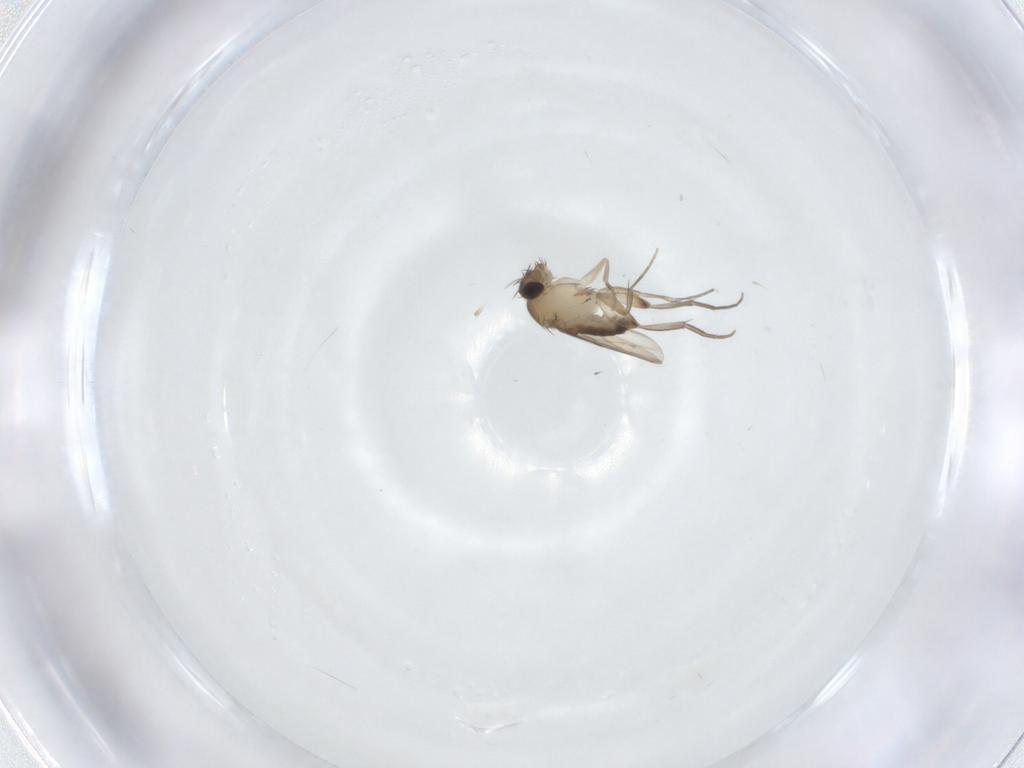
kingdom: Animalia
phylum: Arthropoda
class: Insecta
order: Diptera
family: Phoridae
